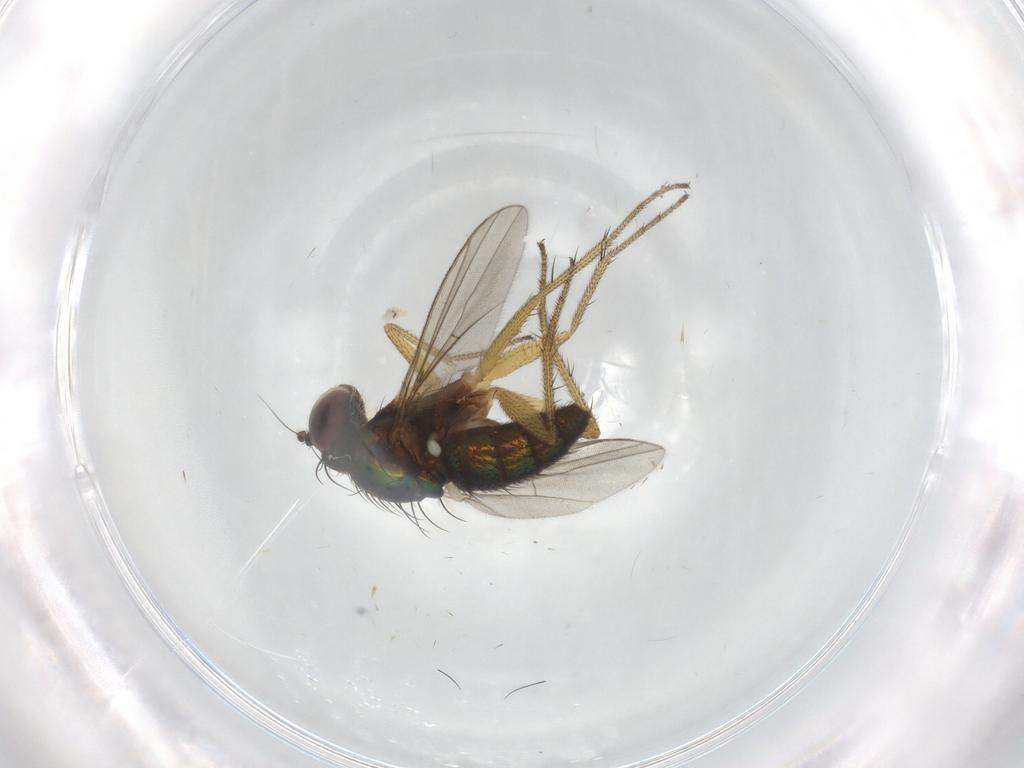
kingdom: Animalia
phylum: Arthropoda
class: Insecta
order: Diptera
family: Dolichopodidae
